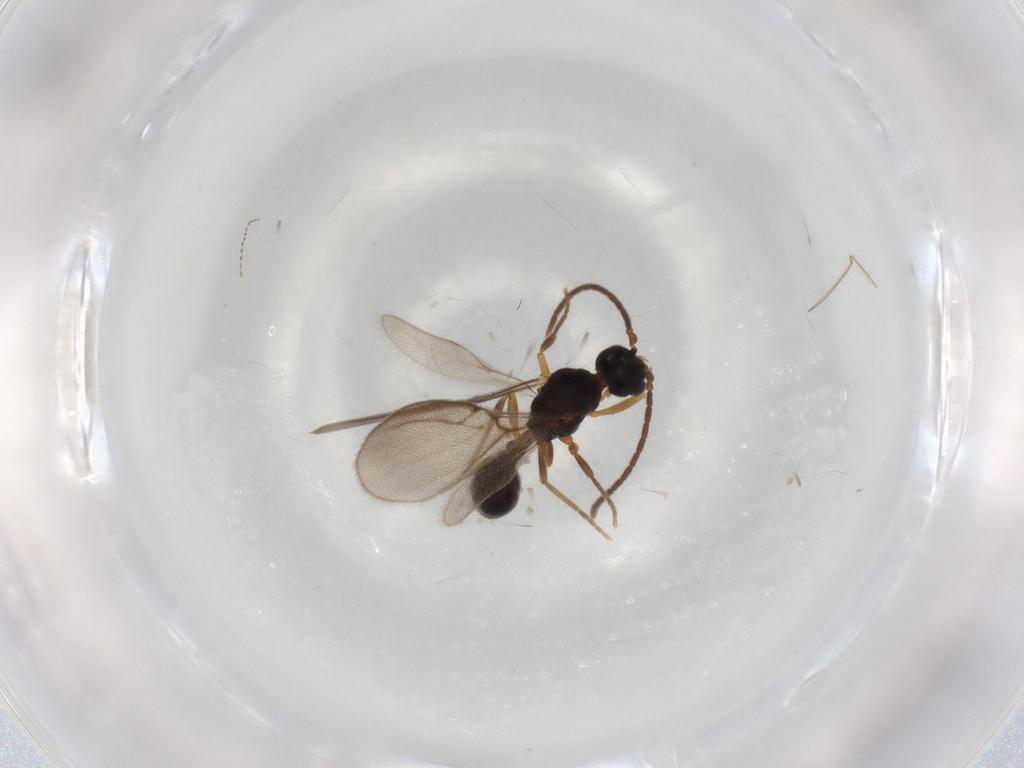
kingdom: Animalia
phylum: Arthropoda
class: Insecta
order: Hymenoptera
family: Formicidae
